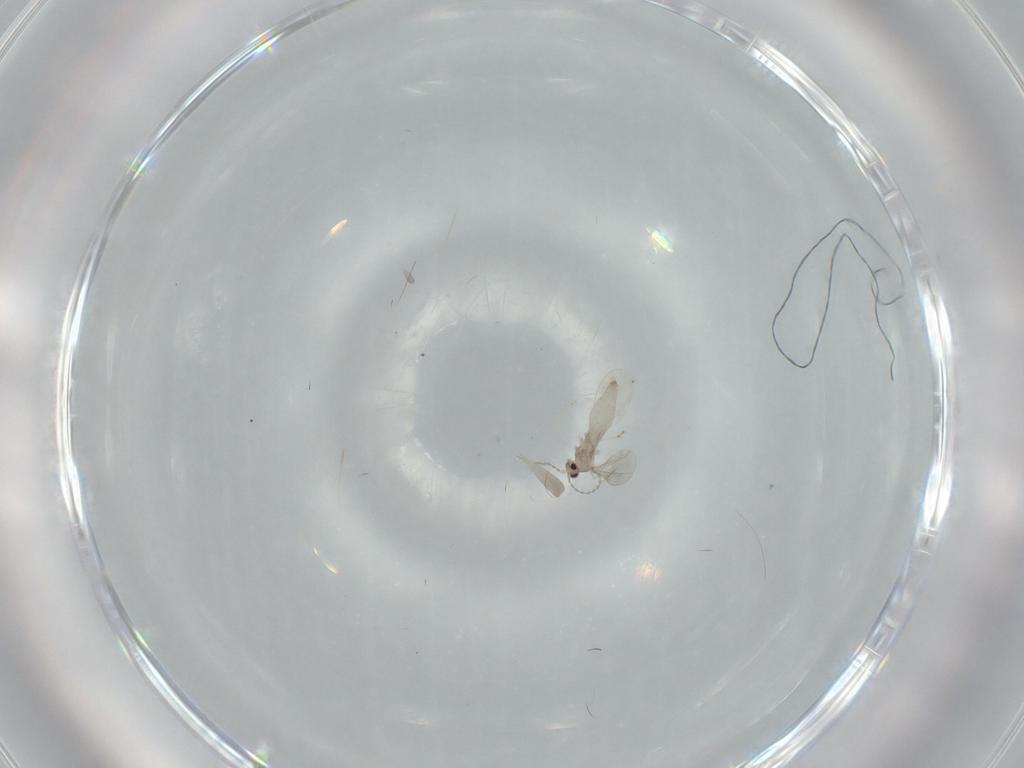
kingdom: Animalia
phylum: Arthropoda
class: Insecta
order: Diptera
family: Cecidomyiidae
